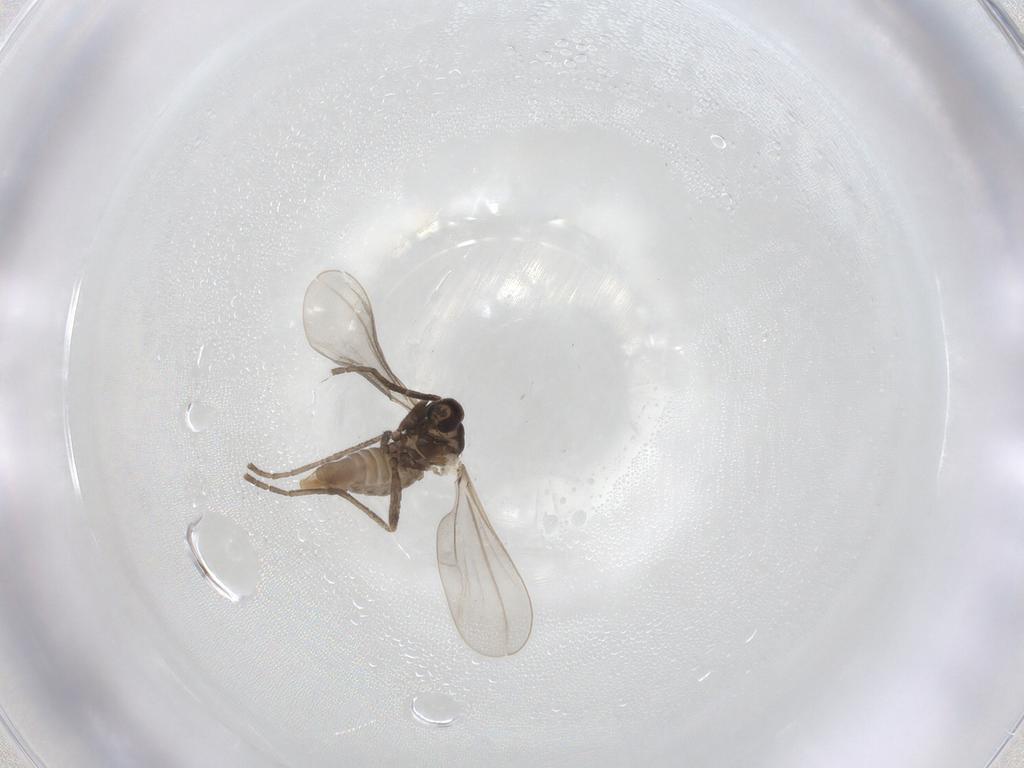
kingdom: Animalia
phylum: Arthropoda
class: Insecta
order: Diptera
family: Cecidomyiidae
